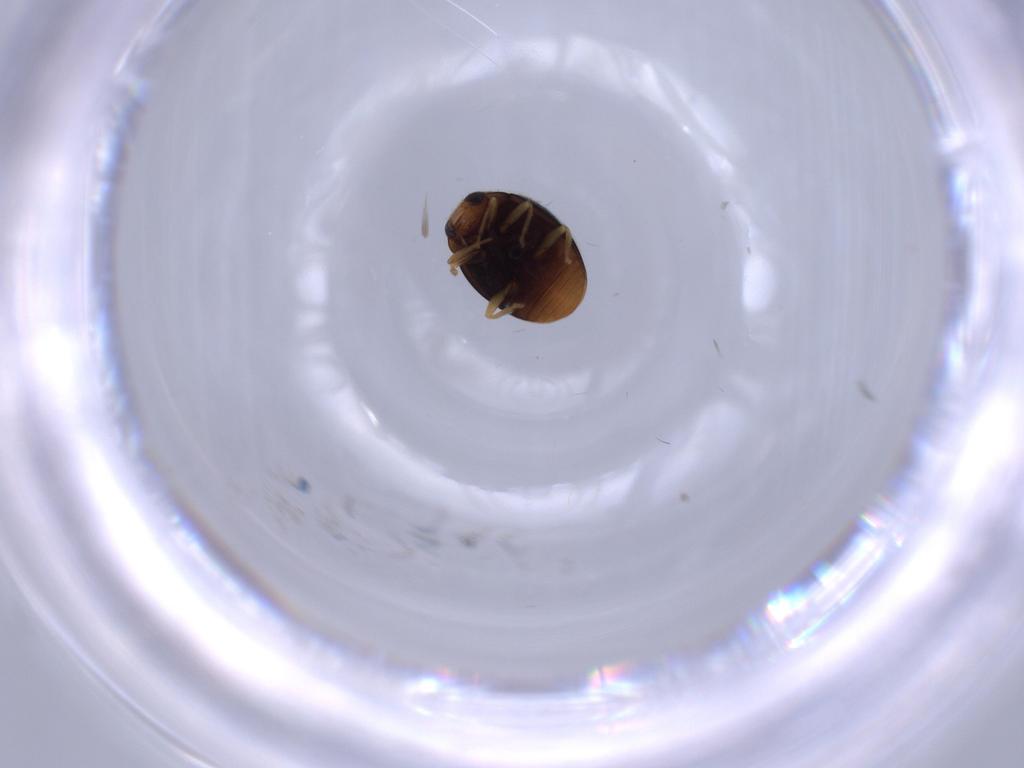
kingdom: Animalia
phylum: Arthropoda
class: Insecta
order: Coleoptera
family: Coccinellidae
